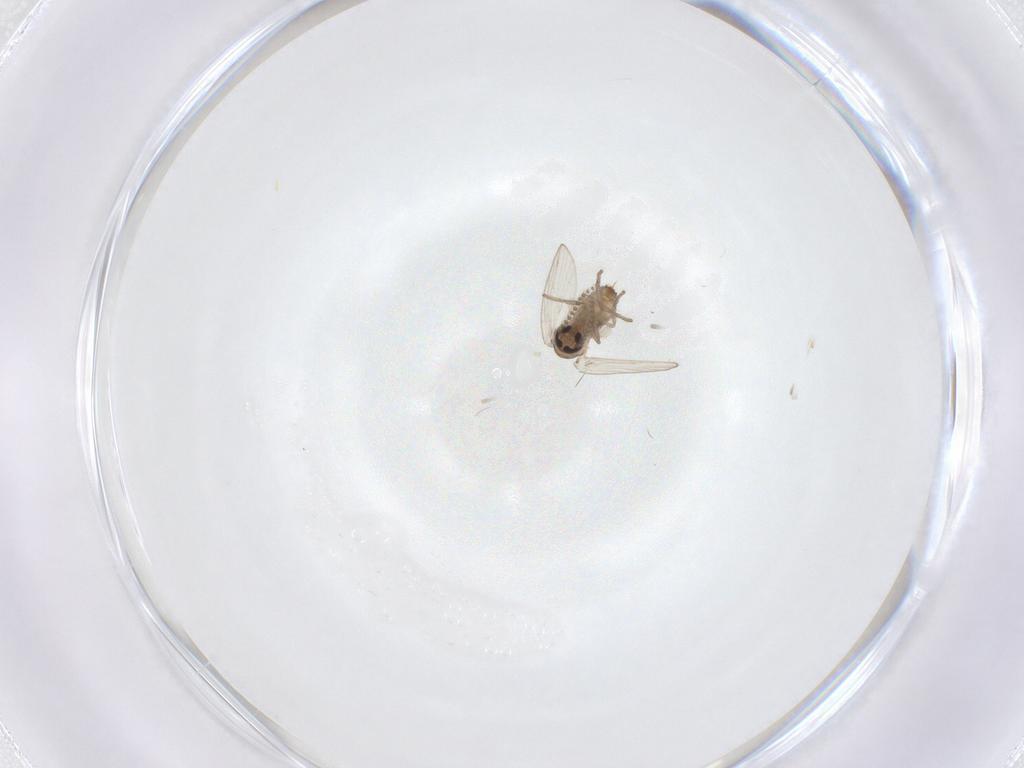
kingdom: Animalia
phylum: Arthropoda
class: Insecta
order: Diptera
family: Psychodidae
